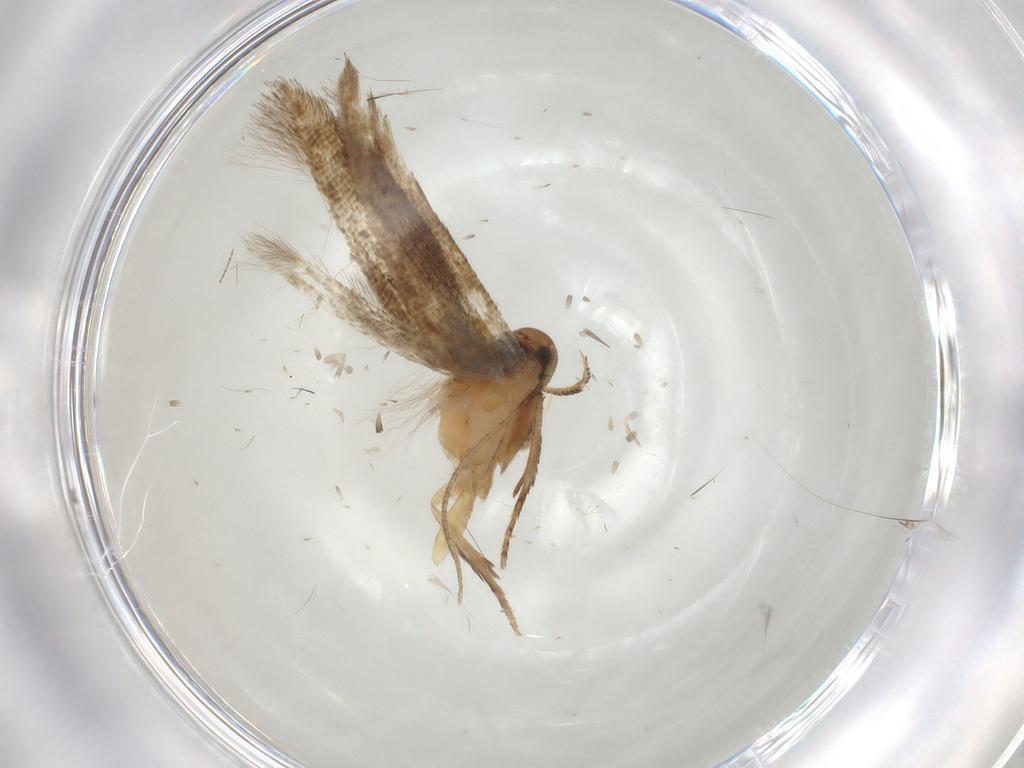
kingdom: Animalia
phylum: Arthropoda
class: Insecta
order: Lepidoptera
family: Cosmopterigidae
